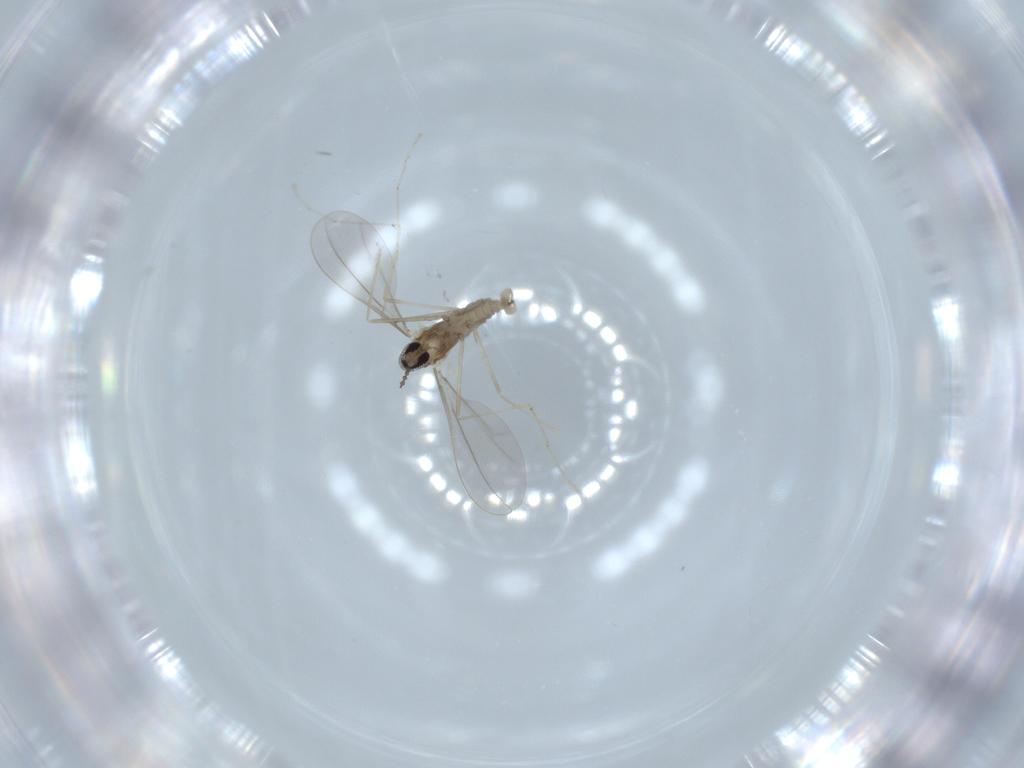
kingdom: Animalia
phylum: Arthropoda
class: Insecta
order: Diptera
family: Cecidomyiidae
